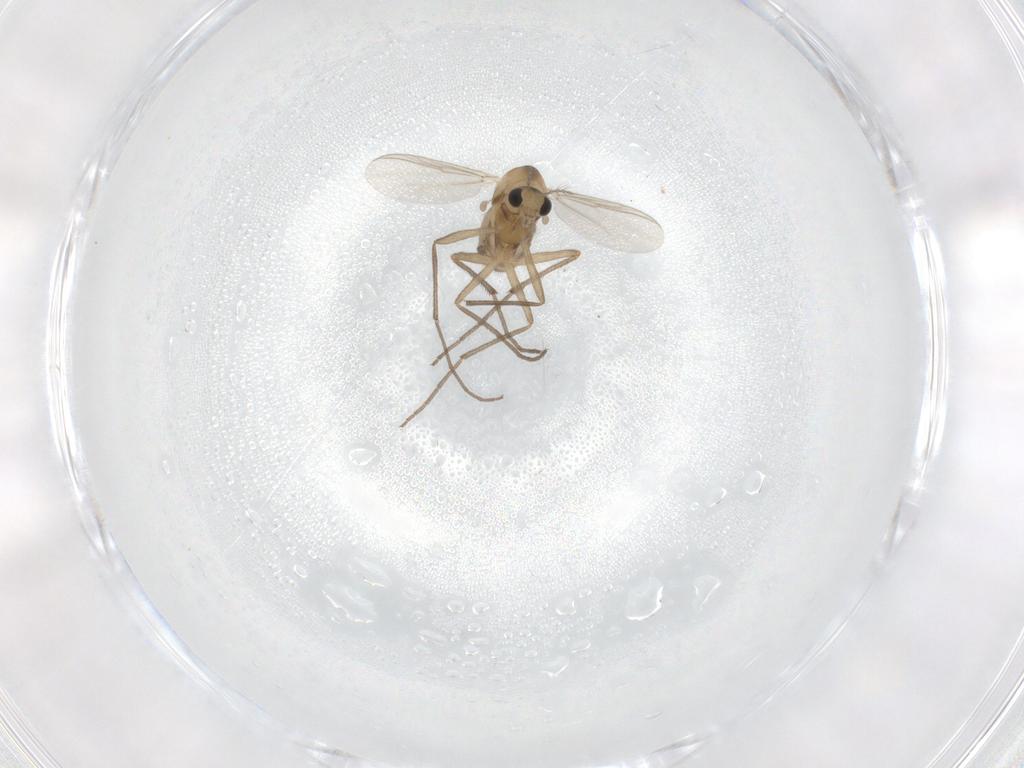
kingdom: Animalia
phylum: Arthropoda
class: Insecta
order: Diptera
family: Chironomidae
